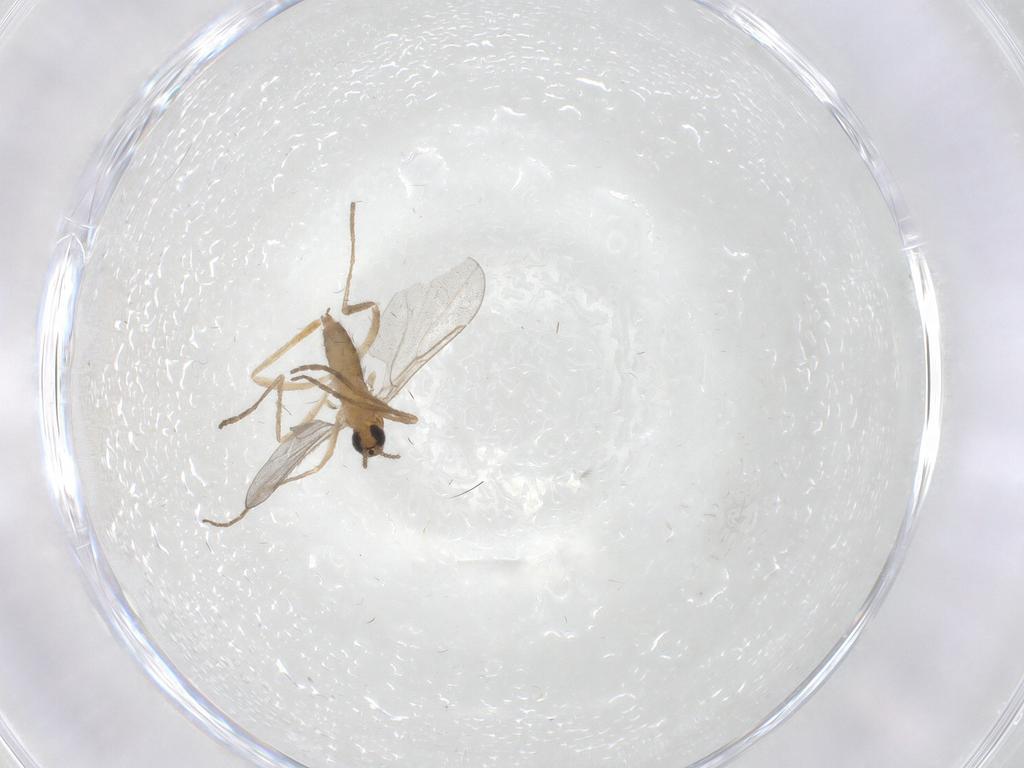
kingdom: Animalia
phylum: Arthropoda
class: Insecta
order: Diptera
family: Cecidomyiidae
